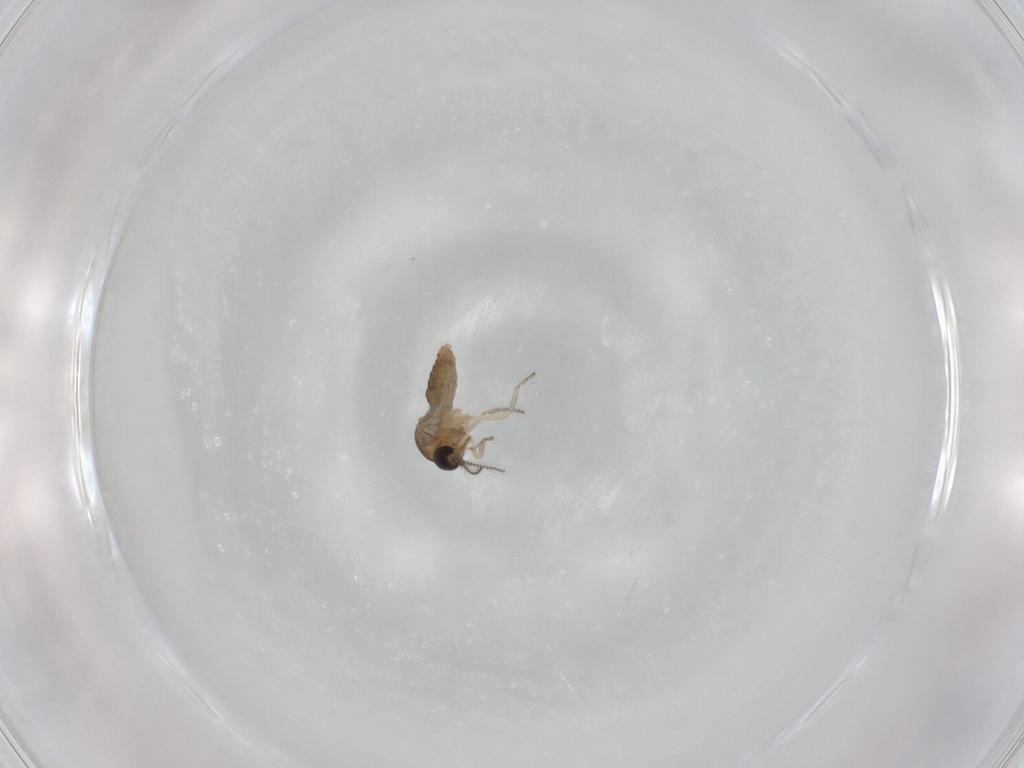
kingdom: Animalia
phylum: Arthropoda
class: Insecta
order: Diptera
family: Ceratopogonidae
